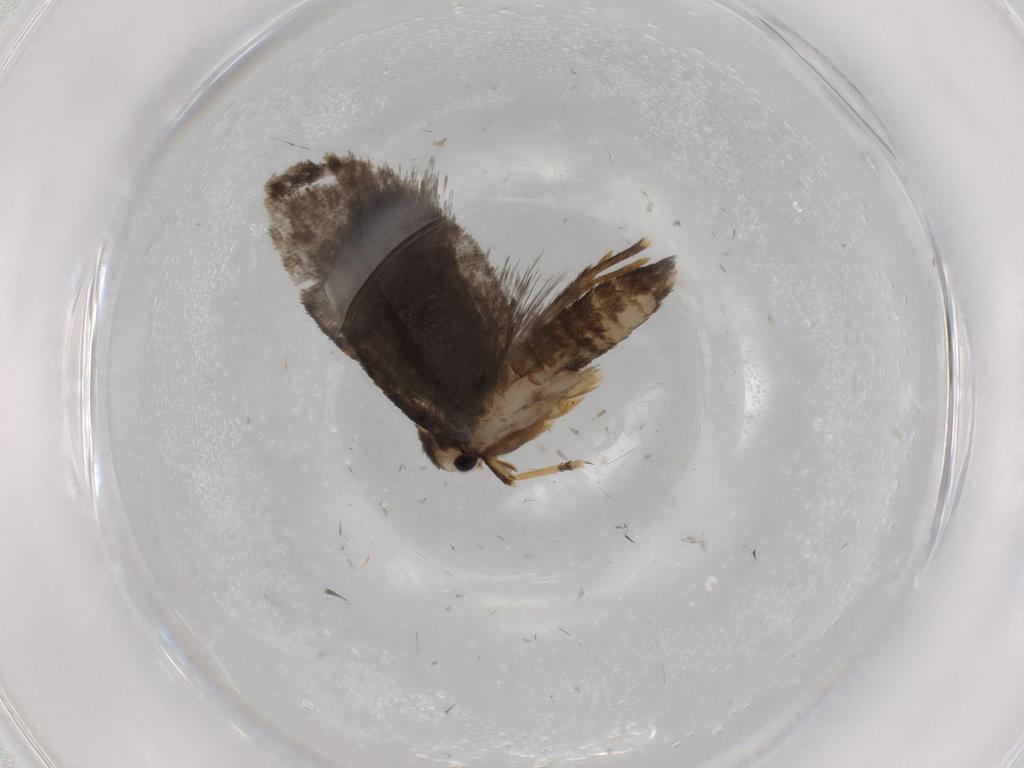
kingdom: Animalia
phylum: Arthropoda
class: Insecta
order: Lepidoptera
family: Psychidae
